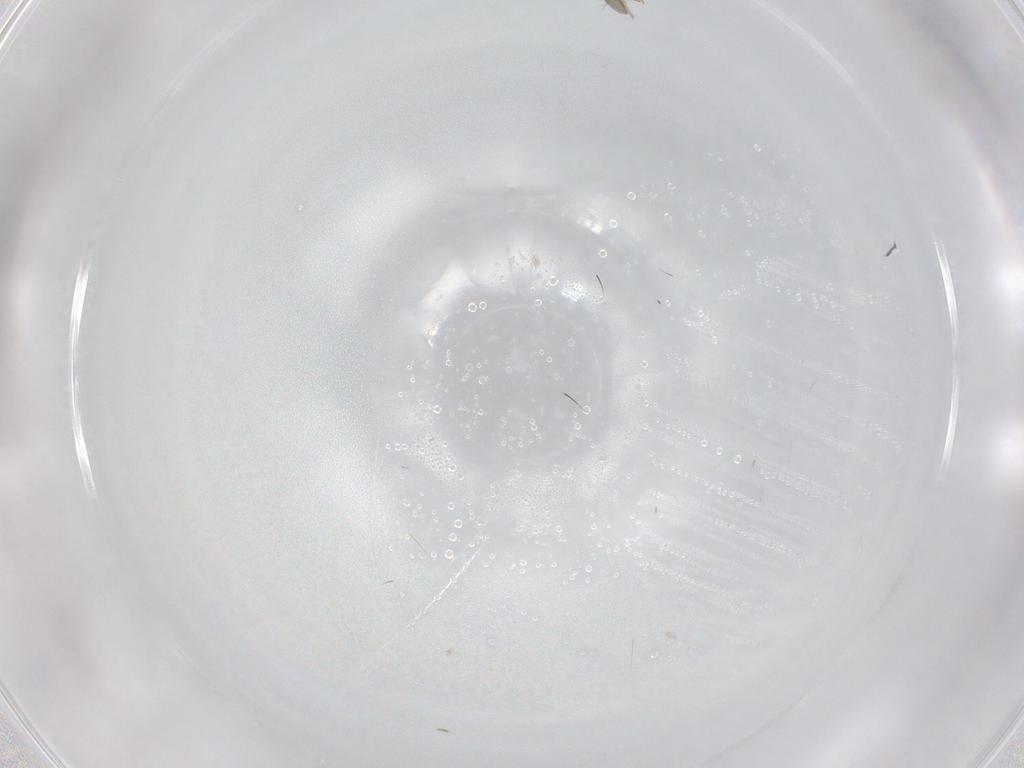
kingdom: Animalia
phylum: Arthropoda
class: Insecta
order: Hymenoptera
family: Scelionidae
